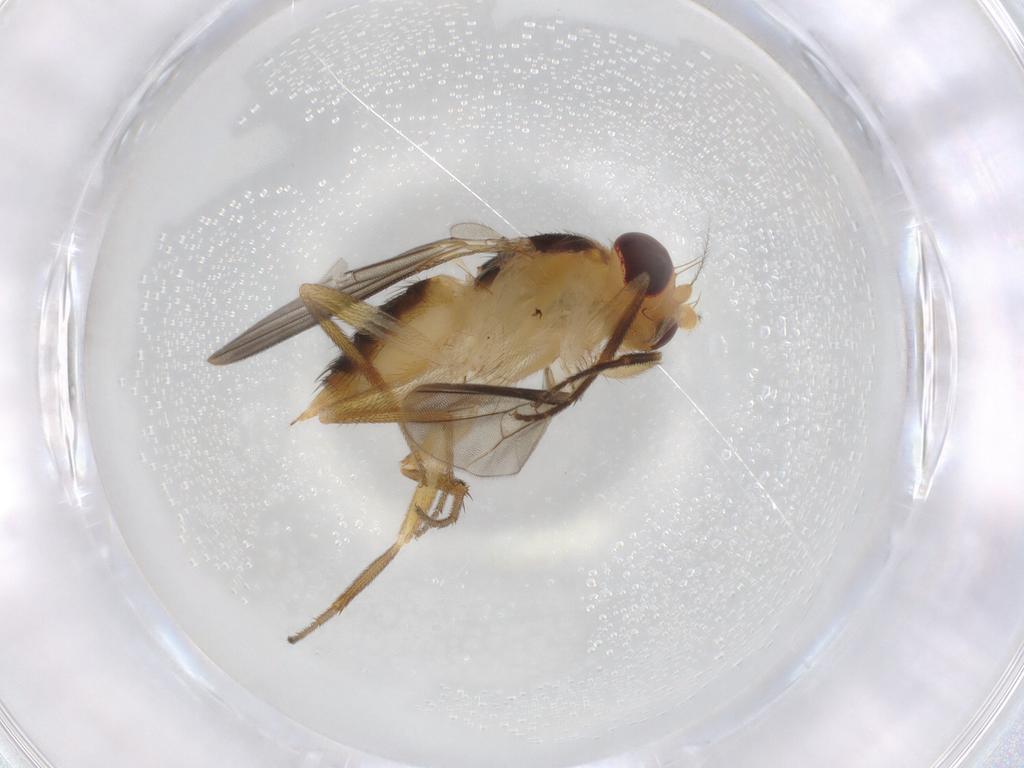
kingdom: Animalia
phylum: Arthropoda
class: Insecta
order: Diptera
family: Agromyzidae
